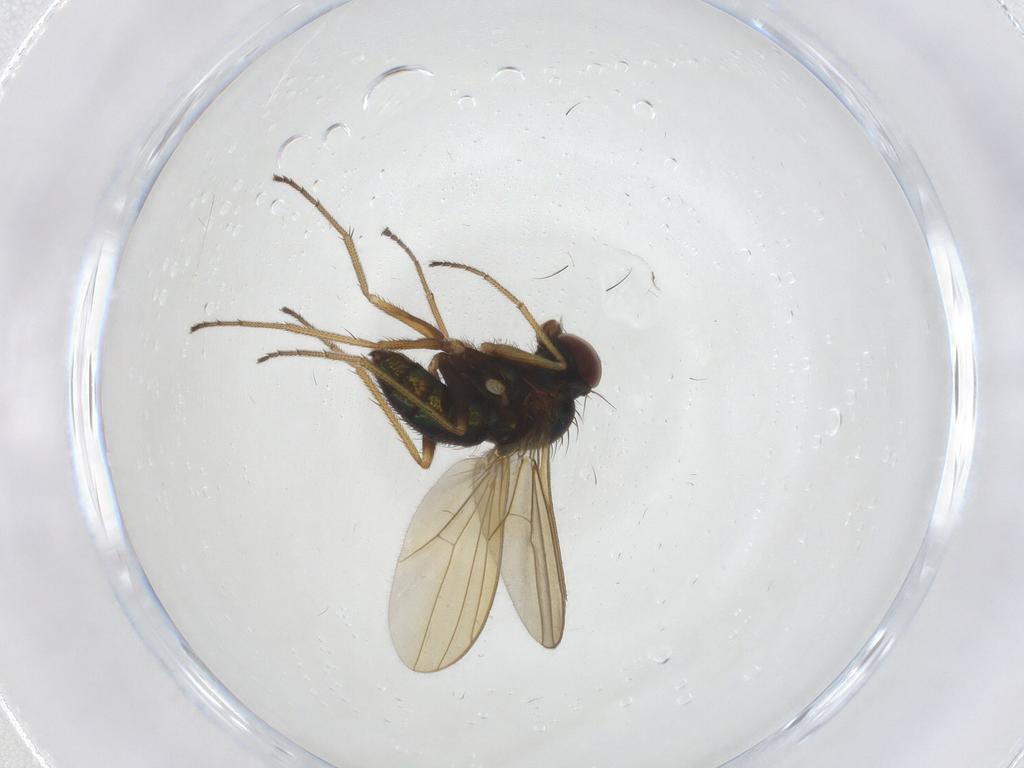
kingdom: Animalia
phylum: Arthropoda
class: Insecta
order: Diptera
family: Dolichopodidae
